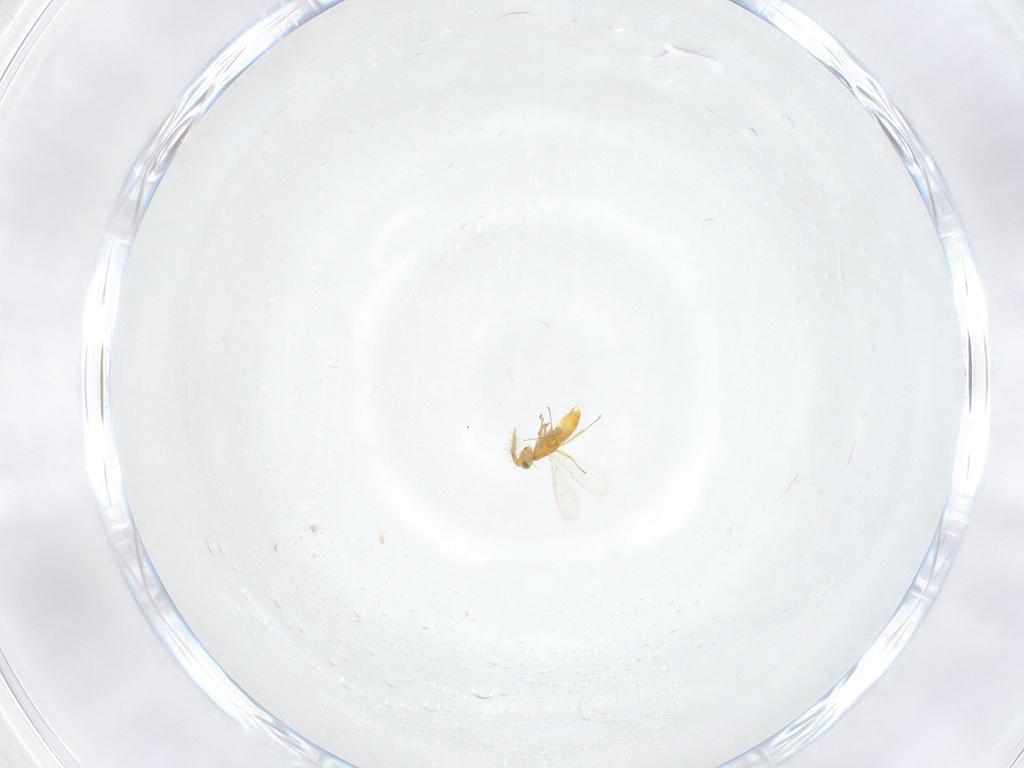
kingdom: Animalia
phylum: Arthropoda
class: Insecta
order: Hymenoptera
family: Aphelinidae
